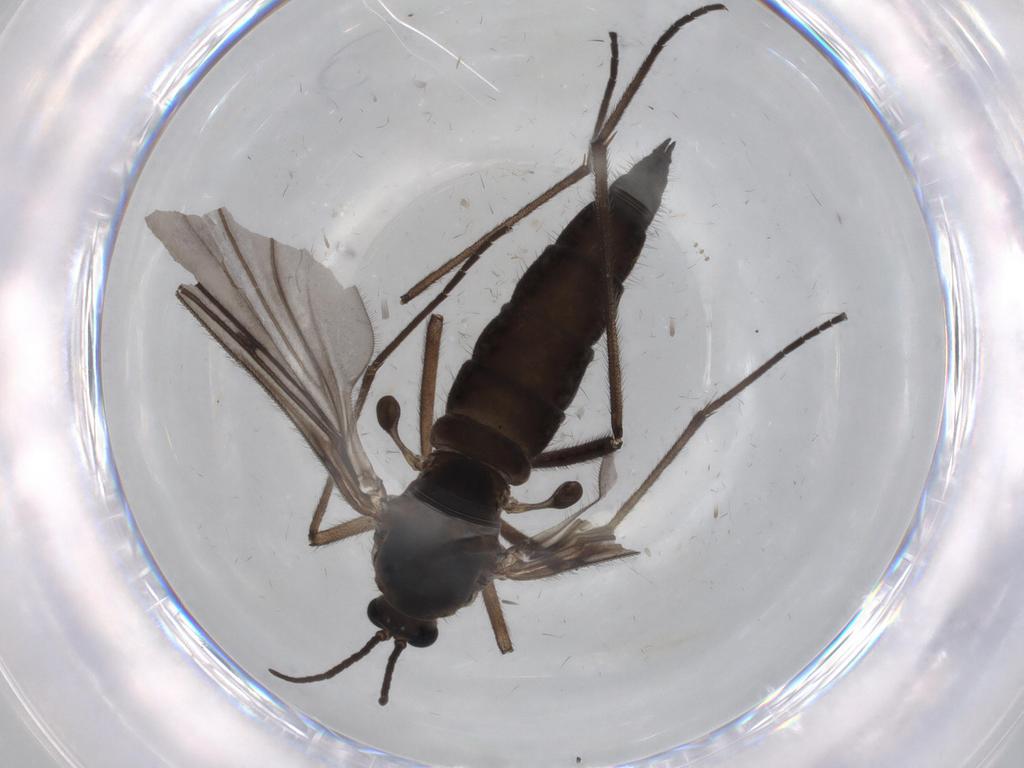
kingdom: Animalia
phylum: Arthropoda
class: Insecta
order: Diptera
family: Sciaridae
